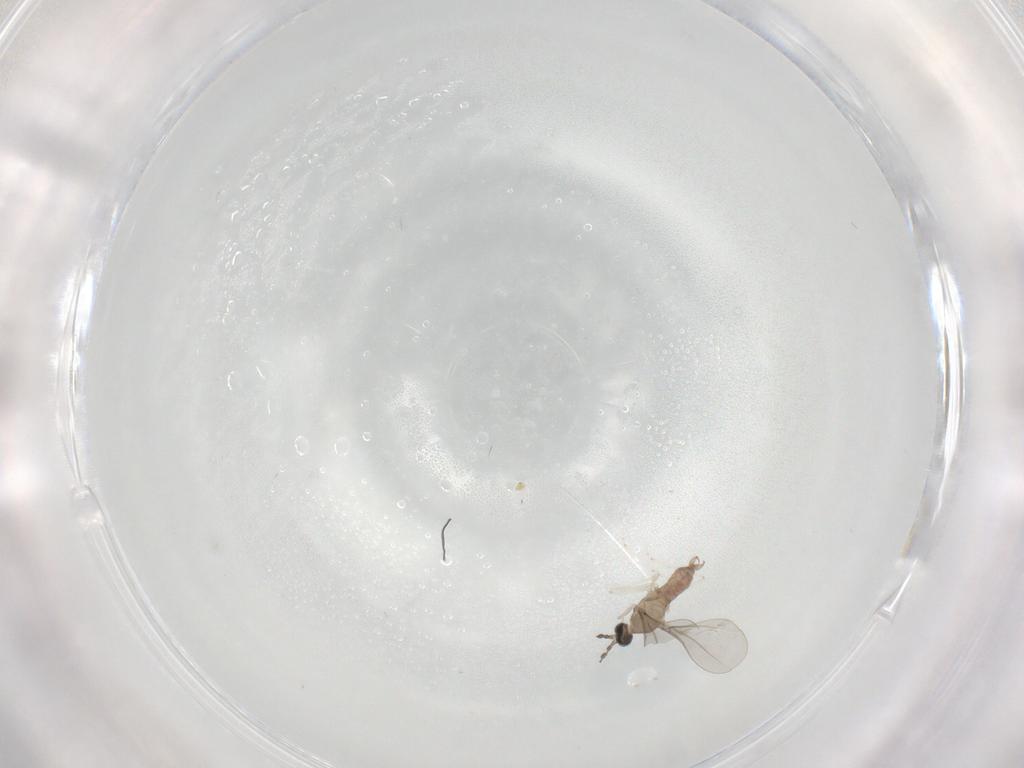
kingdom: Animalia
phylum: Arthropoda
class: Insecta
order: Diptera
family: Cecidomyiidae
